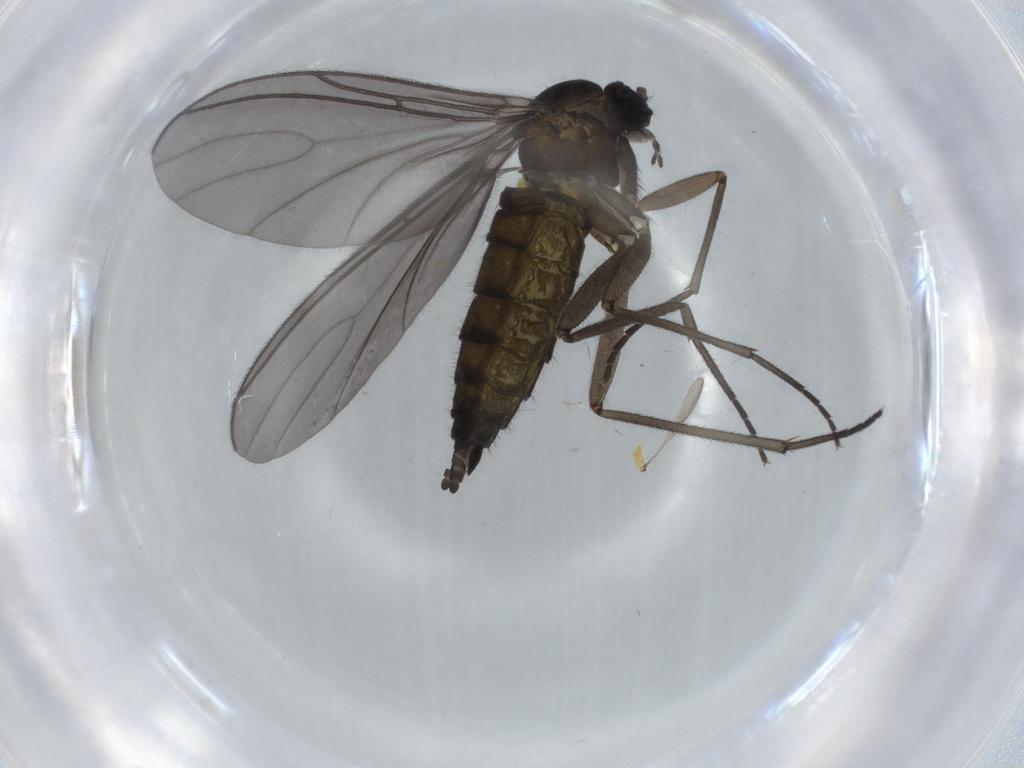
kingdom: Animalia
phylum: Arthropoda
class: Insecta
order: Diptera
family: Sciaridae
